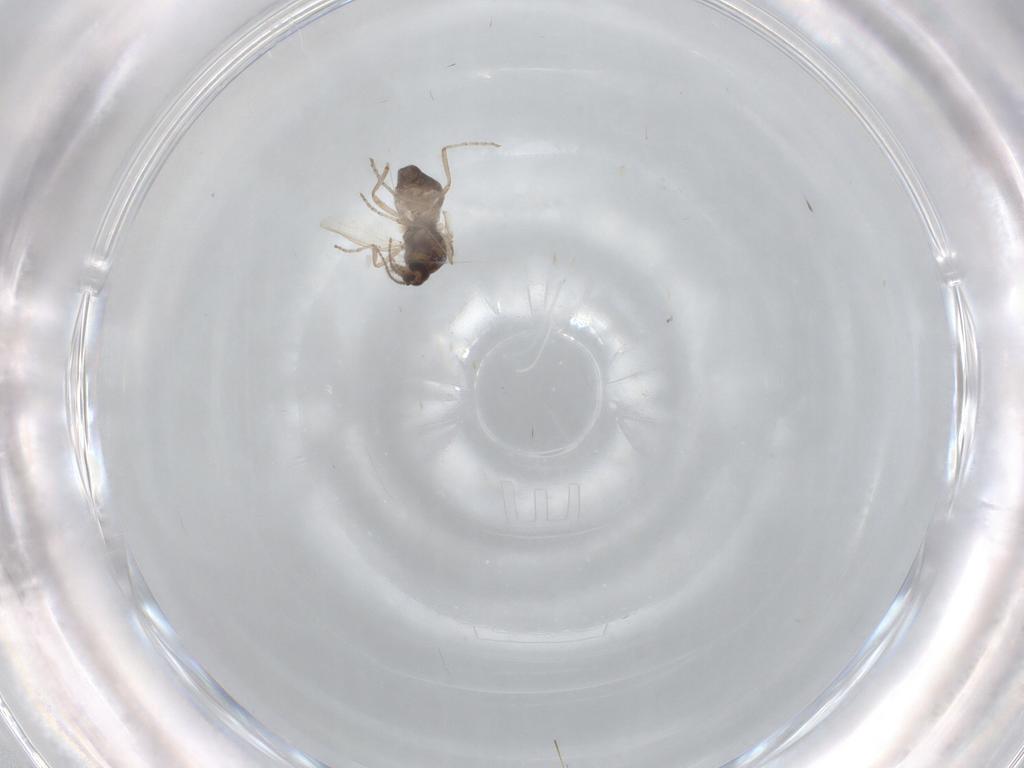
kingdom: Animalia
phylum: Arthropoda
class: Insecta
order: Diptera
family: Ceratopogonidae
